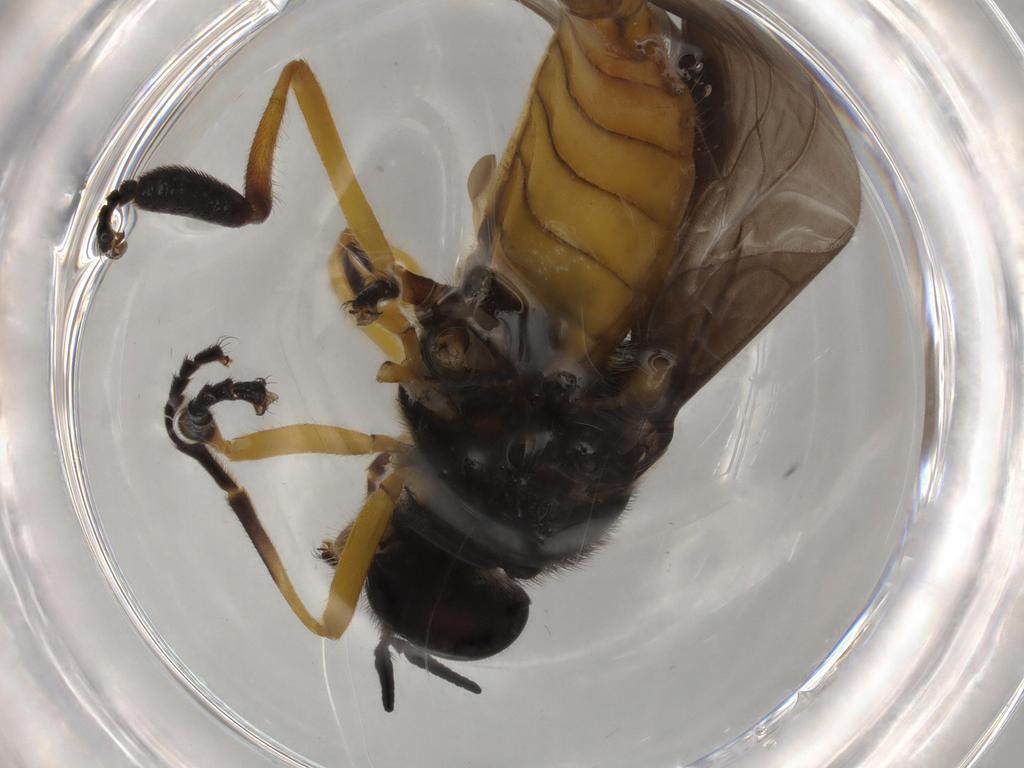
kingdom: Animalia
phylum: Arthropoda
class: Insecta
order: Diptera
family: Stratiomyidae
